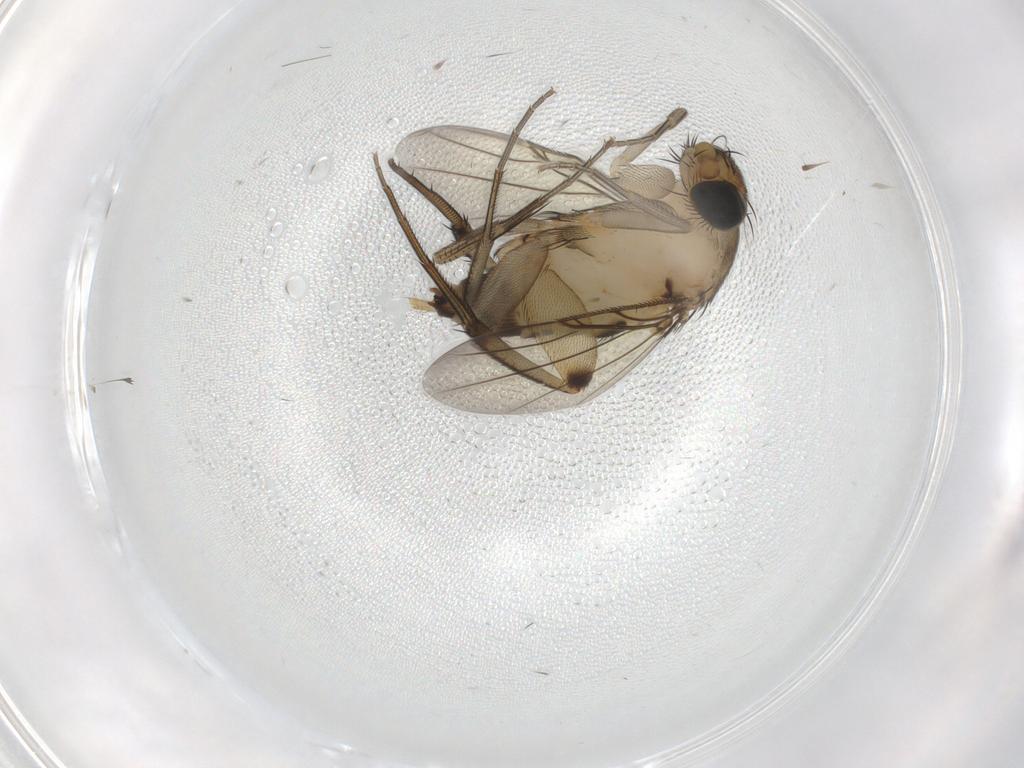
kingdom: Animalia
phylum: Arthropoda
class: Insecta
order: Diptera
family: Phoridae
